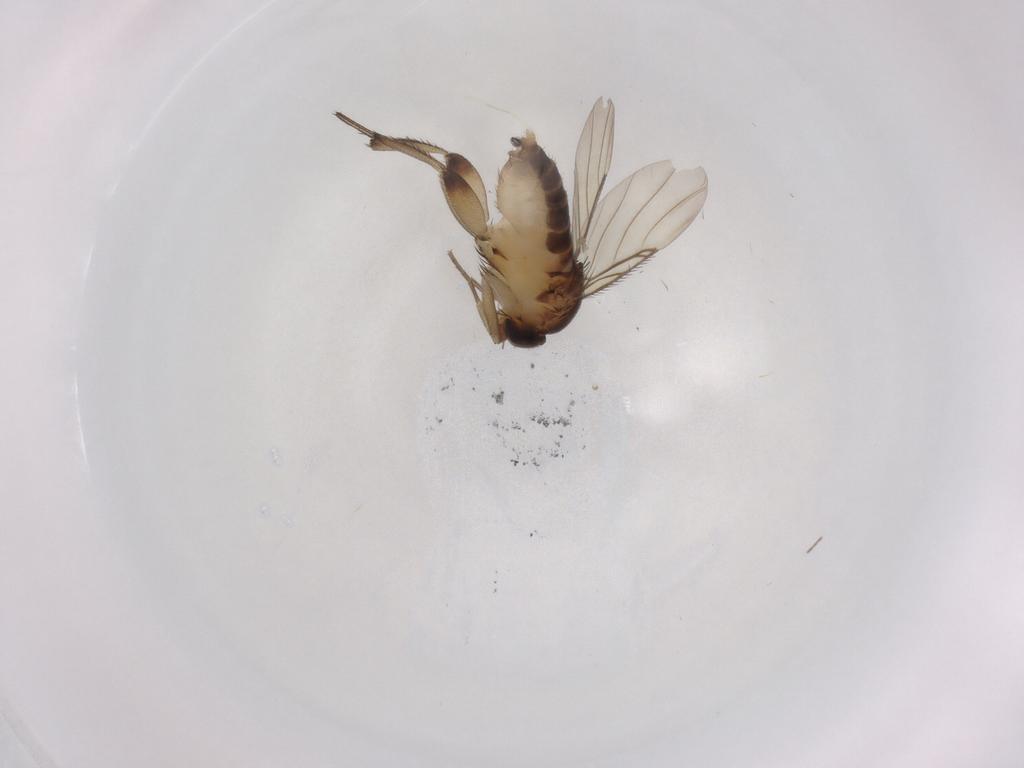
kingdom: Animalia
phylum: Arthropoda
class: Insecta
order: Diptera
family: Phoridae
